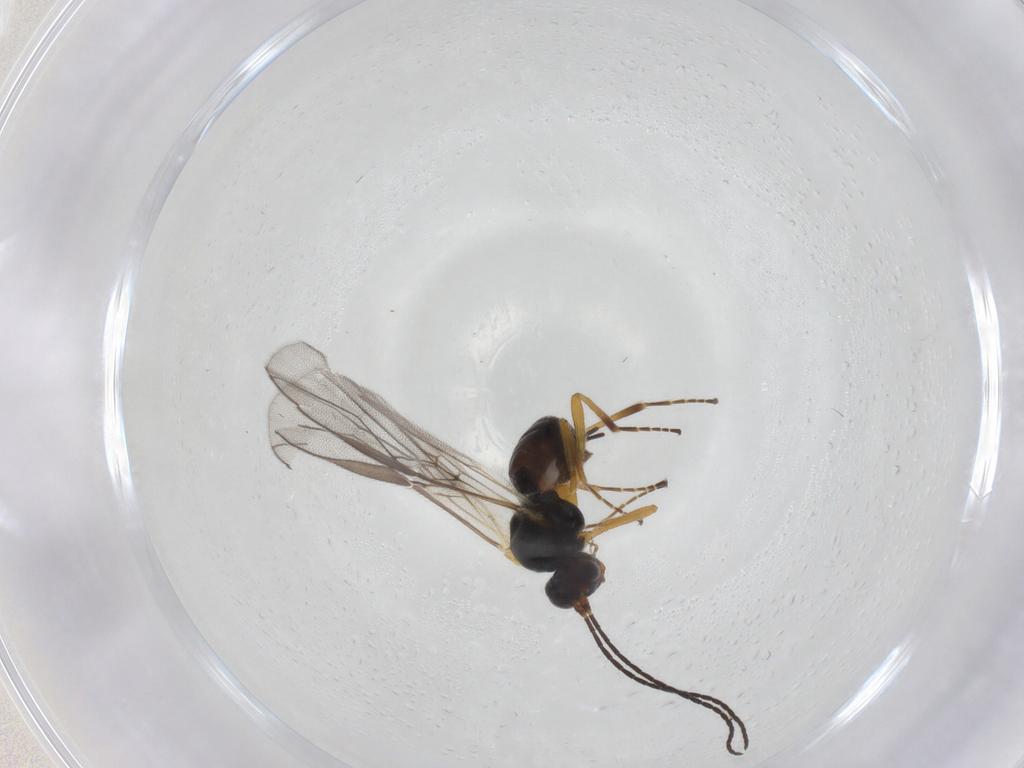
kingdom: Animalia
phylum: Arthropoda
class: Insecta
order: Hymenoptera
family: Braconidae
